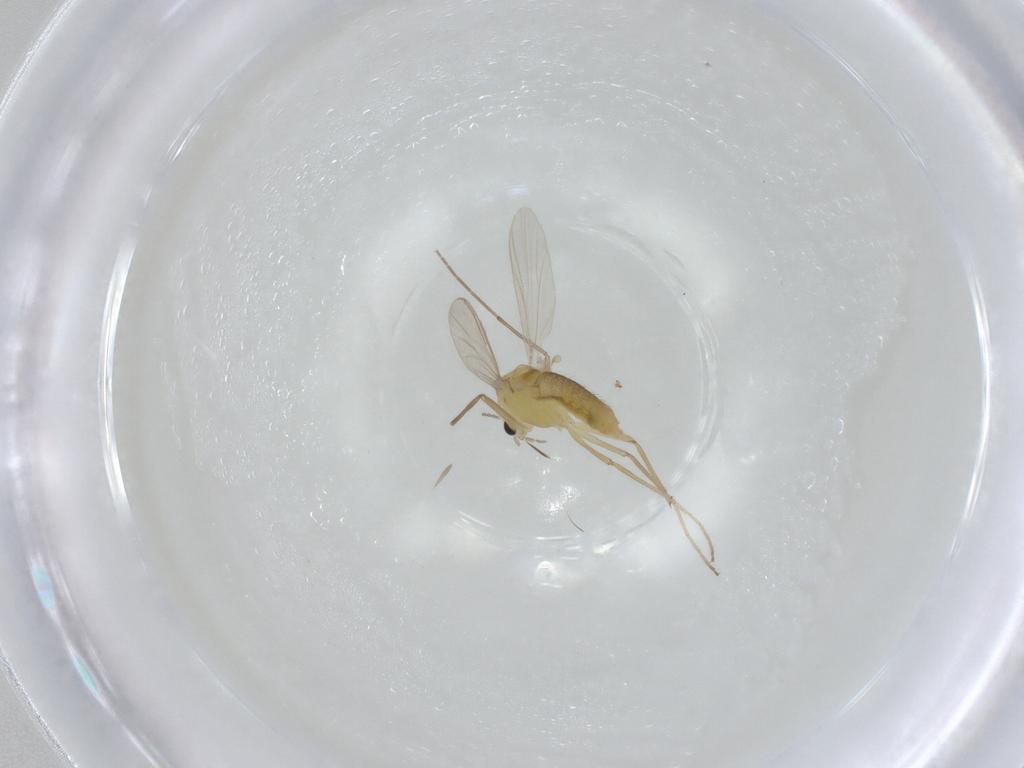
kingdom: Animalia
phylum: Arthropoda
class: Insecta
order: Diptera
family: Chironomidae
